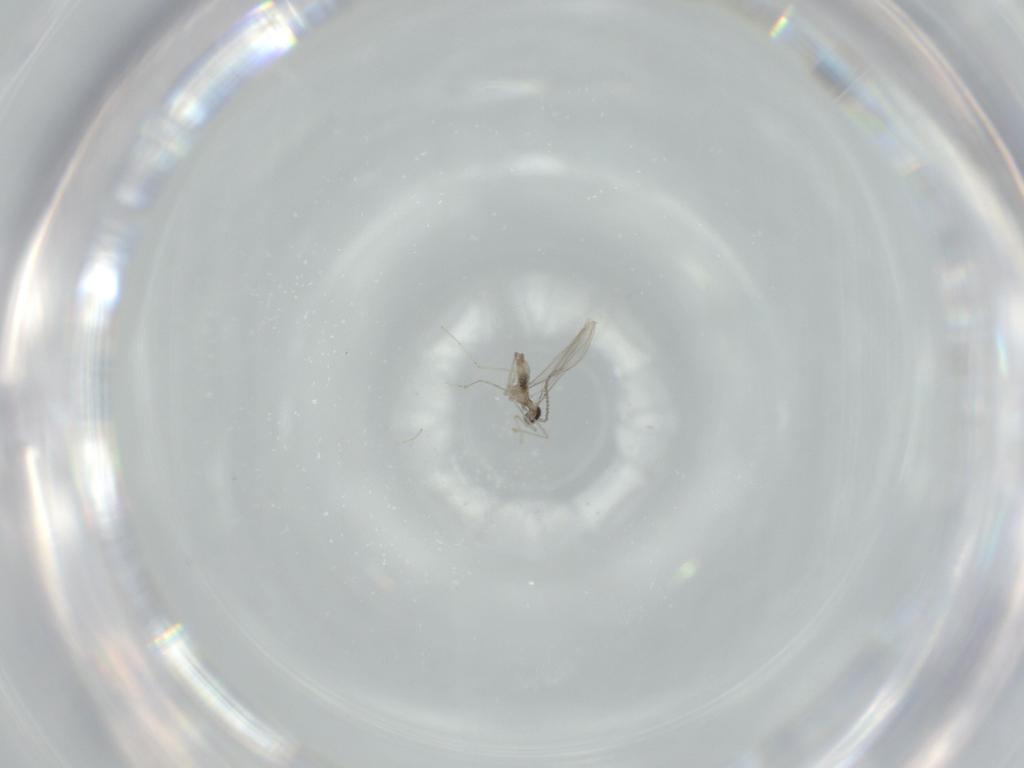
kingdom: Animalia
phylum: Arthropoda
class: Insecta
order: Diptera
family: Cecidomyiidae
